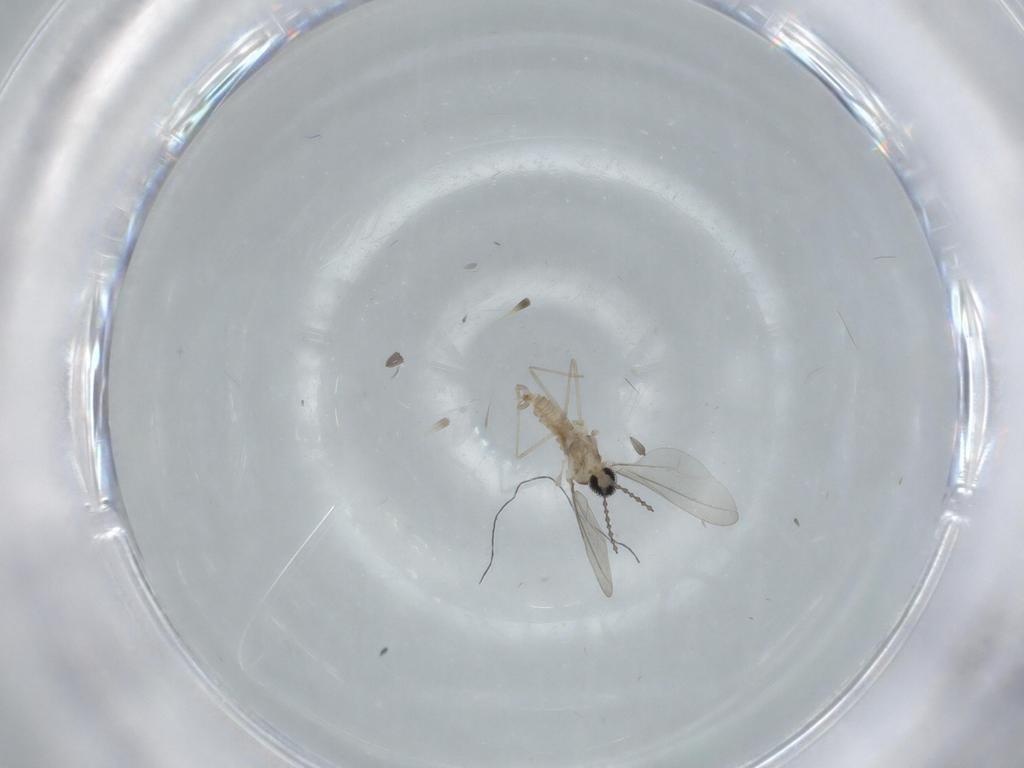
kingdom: Animalia
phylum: Arthropoda
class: Insecta
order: Diptera
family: Cecidomyiidae
